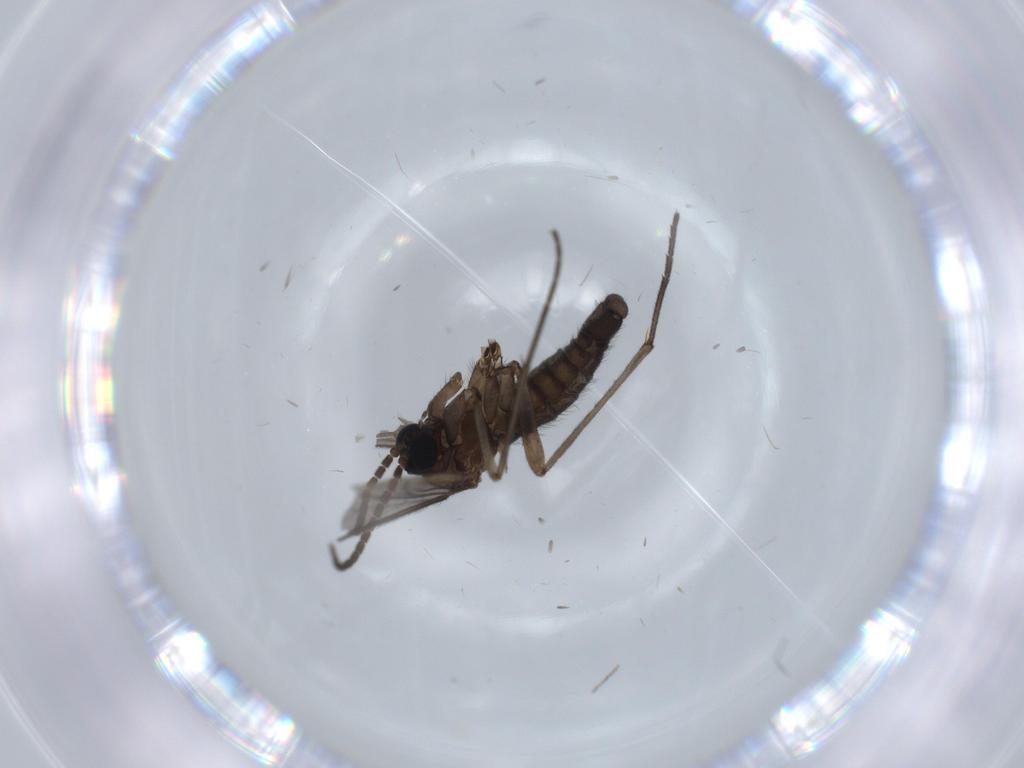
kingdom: Animalia
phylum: Arthropoda
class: Insecta
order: Diptera
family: Sciaridae
